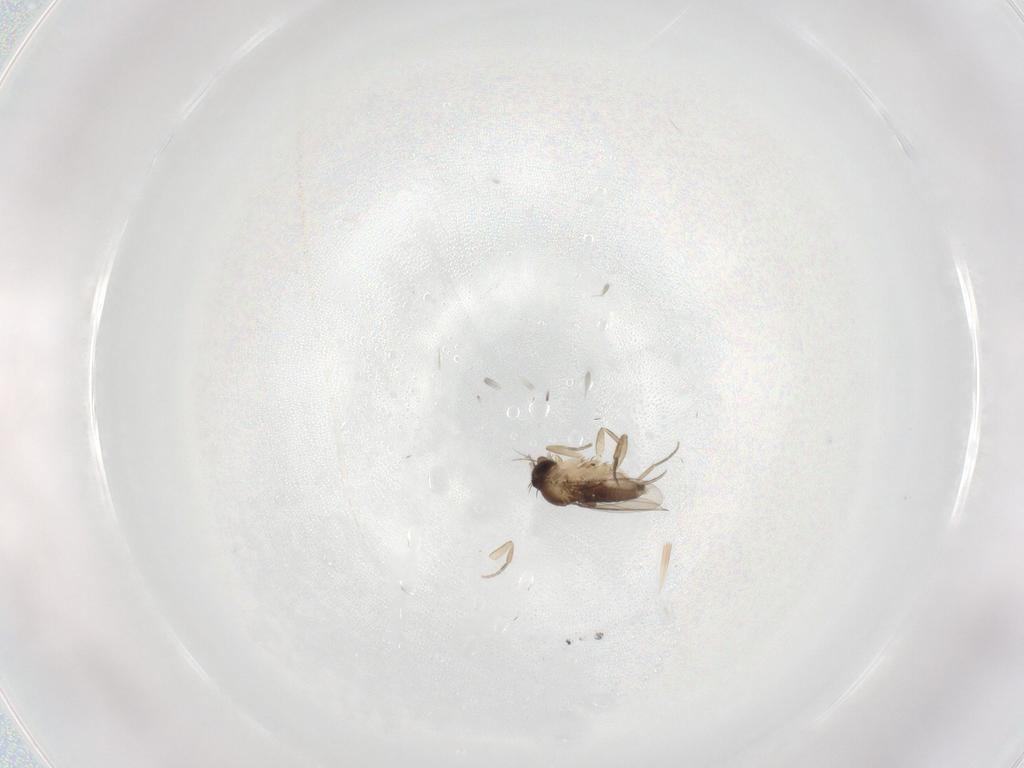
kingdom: Animalia
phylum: Arthropoda
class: Insecta
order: Diptera
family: Phoridae
